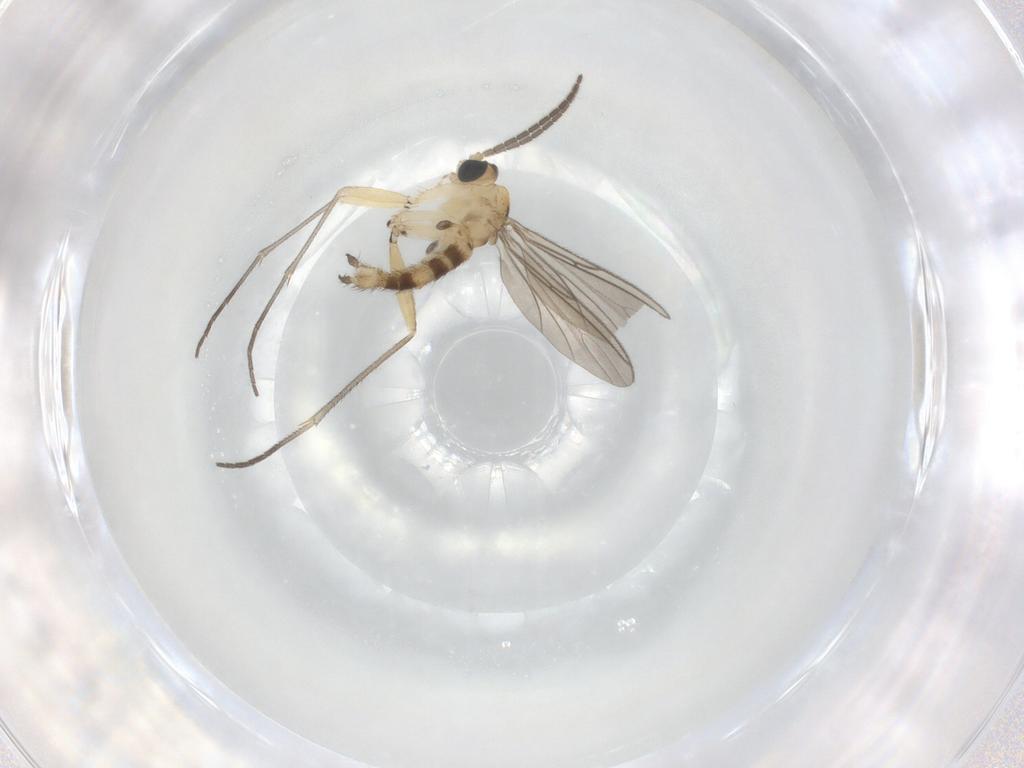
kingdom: Animalia
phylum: Arthropoda
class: Insecta
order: Diptera
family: Sciaridae
